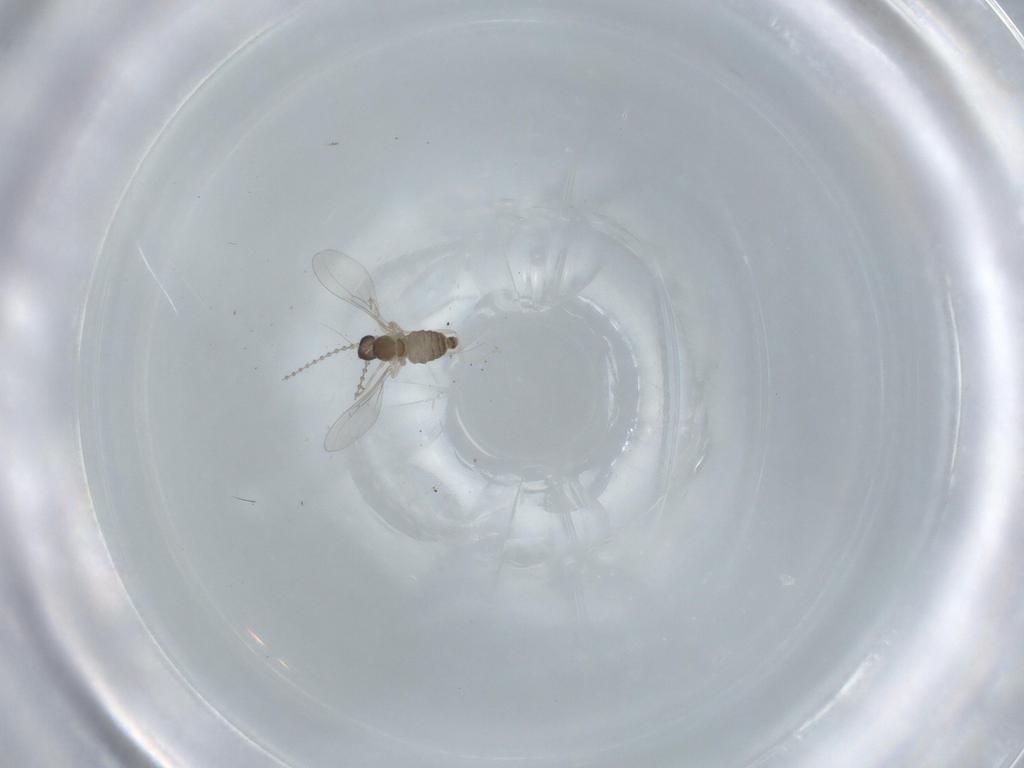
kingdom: Animalia
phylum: Arthropoda
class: Insecta
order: Diptera
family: Cecidomyiidae
